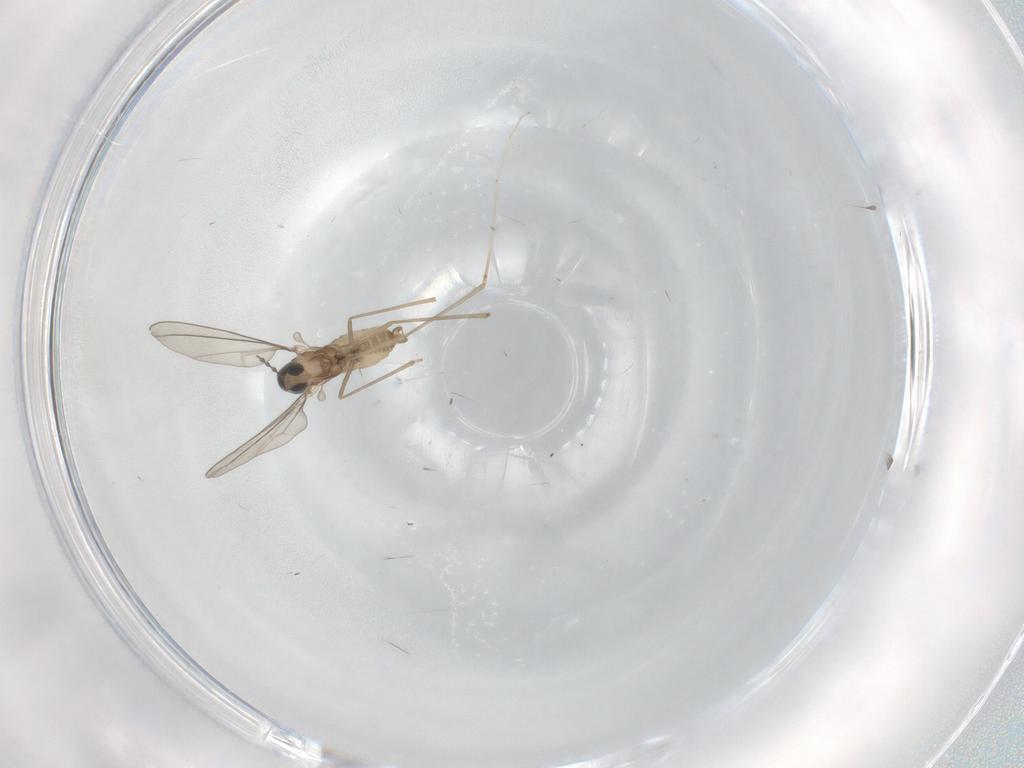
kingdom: Animalia
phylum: Arthropoda
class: Insecta
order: Diptera
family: Cecidomyiidae
